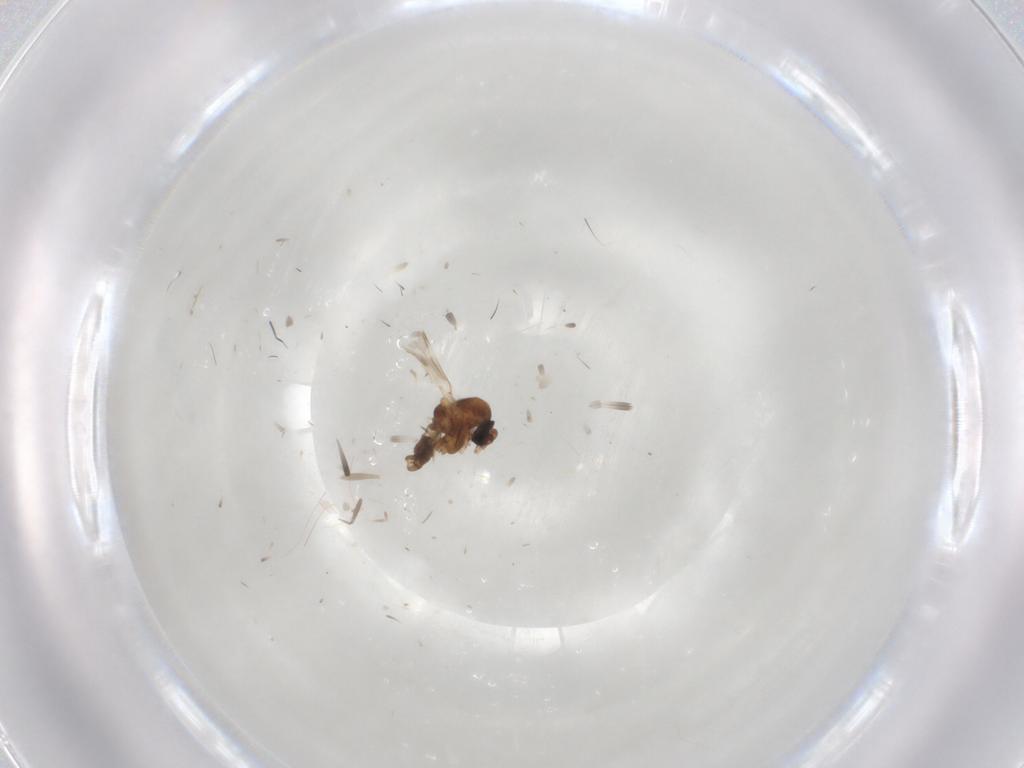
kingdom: Animalia
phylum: Arthropoda
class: Insecta
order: Diptera
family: Ceratopogonidae
